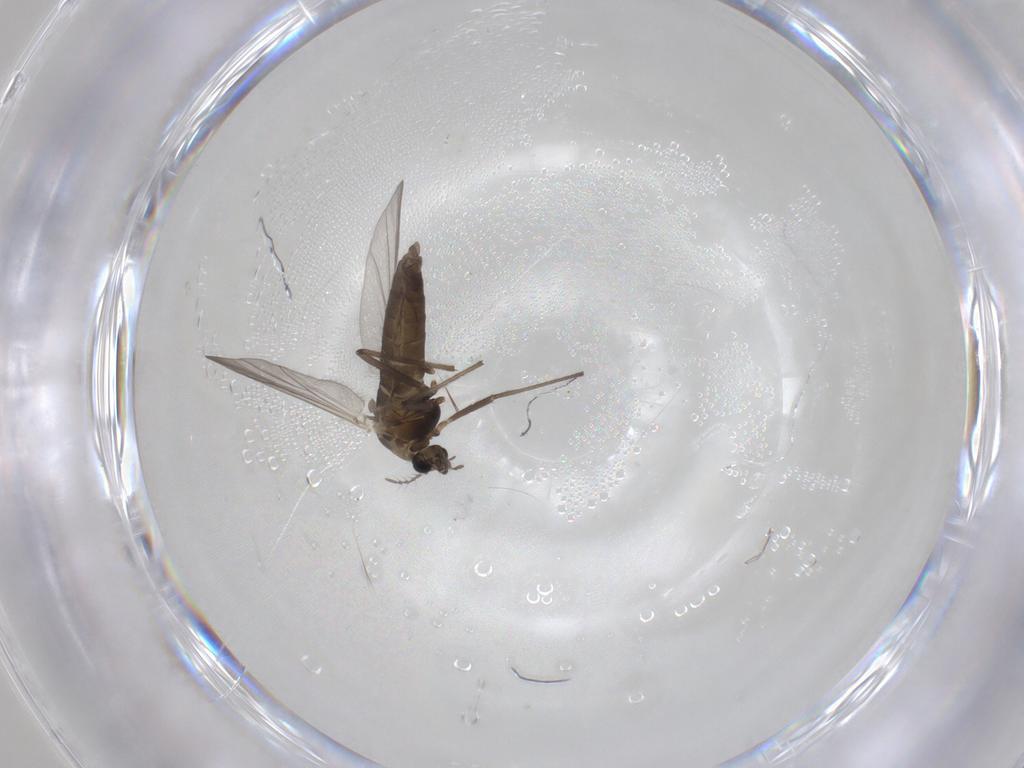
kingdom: Animalia
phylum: Arthropoda
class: Insecta
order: Diptera
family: Chironomidae
